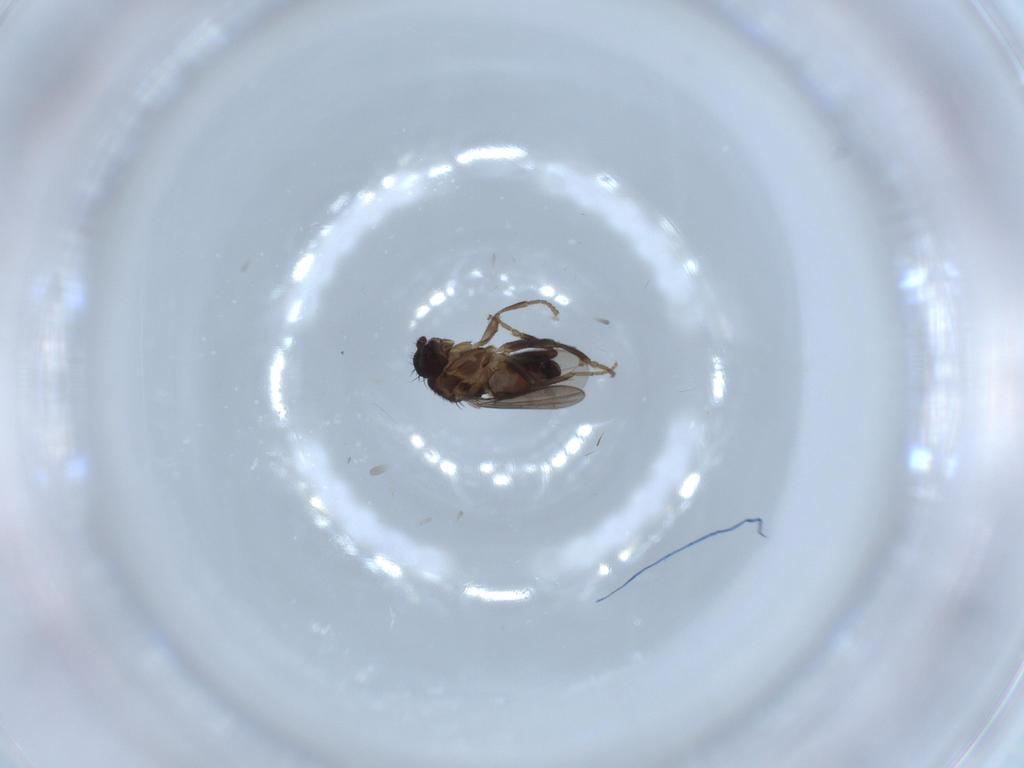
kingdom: Animalia
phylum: Arthropoda
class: Insecta
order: Diptera
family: Sphaeroceridae
